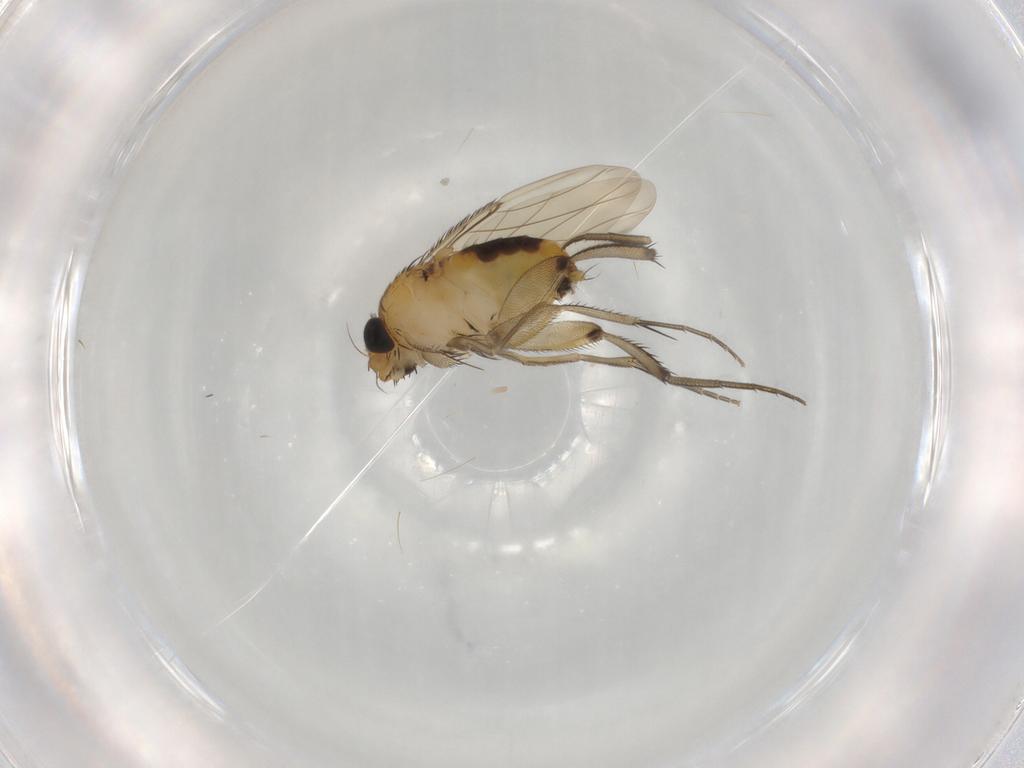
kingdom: Animalia
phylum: Arthropoda
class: Insecta
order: Diptera
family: Phoridae
